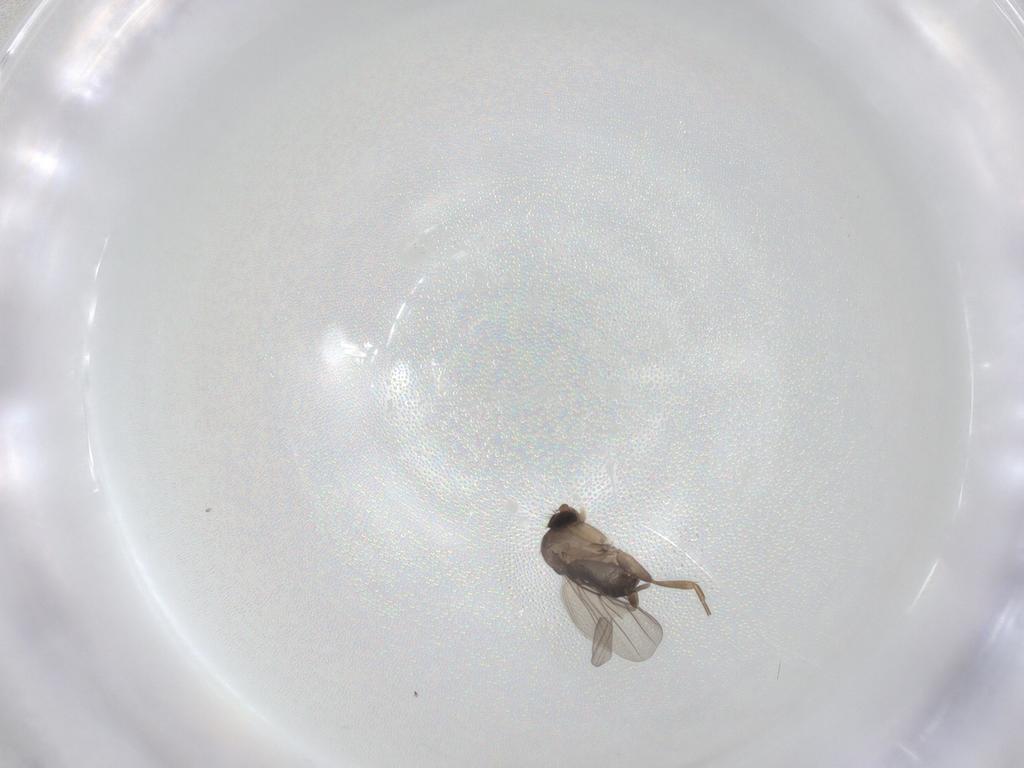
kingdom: Animalia
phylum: Arthropoda
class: Insecta
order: Diptera
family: Phoridae
